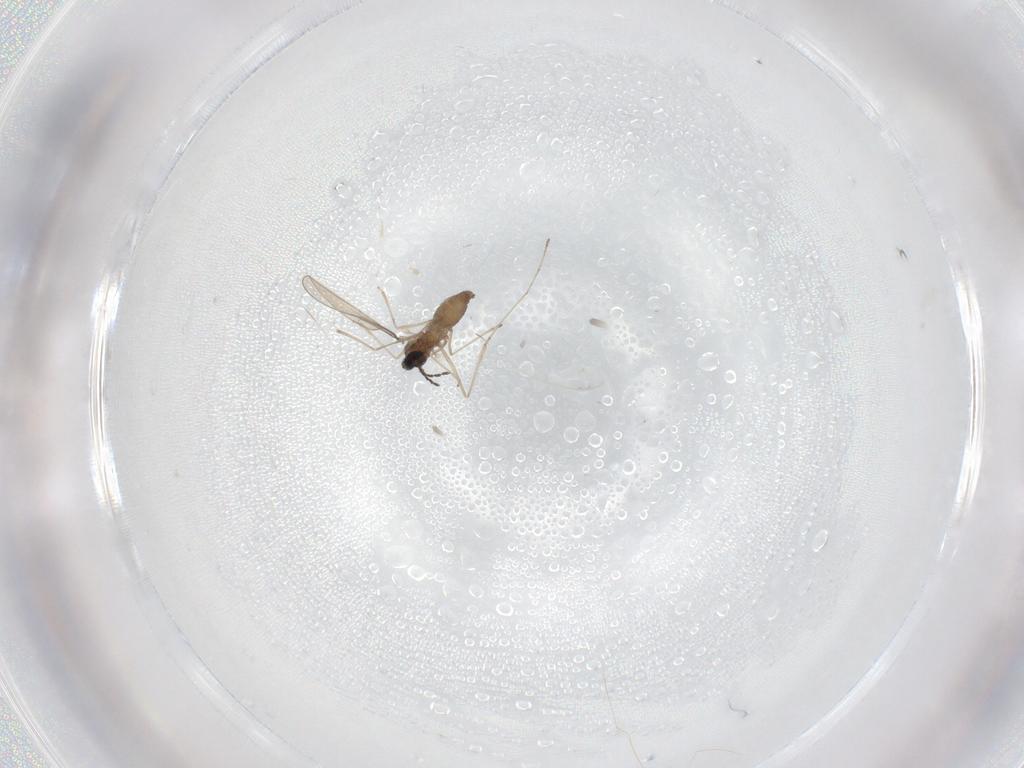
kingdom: Animalia
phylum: Arthropoda
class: Insecta
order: Diptera
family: Cecidomyiidae
